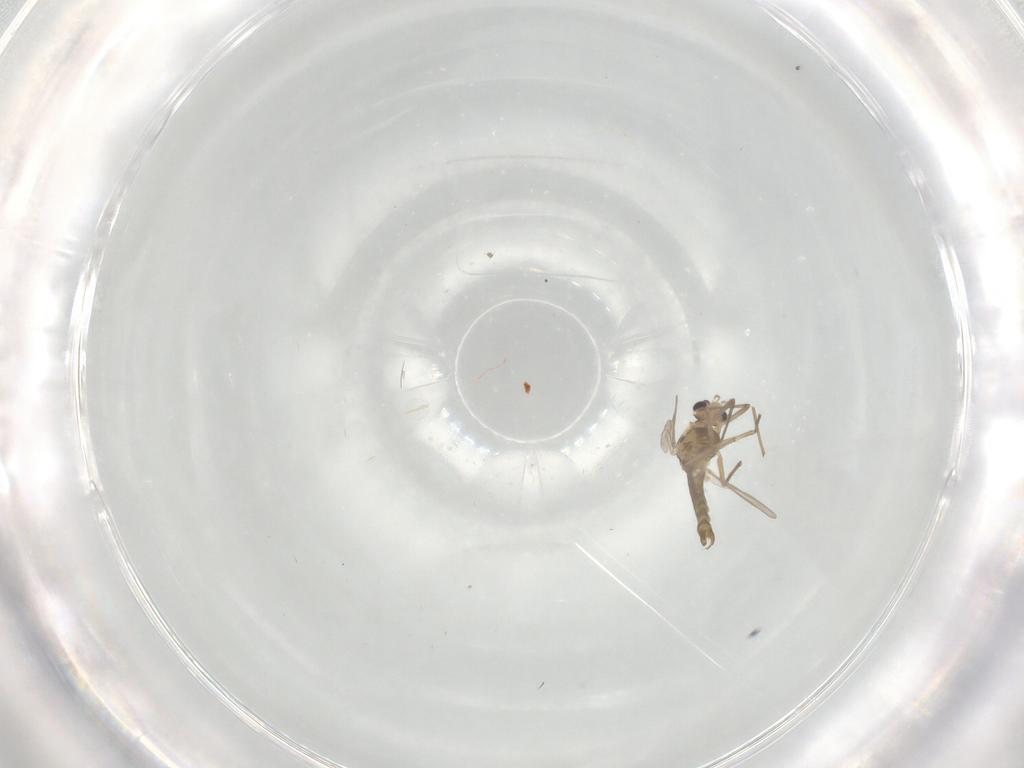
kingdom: Animalia
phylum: Arthropoda
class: Insecta
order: Diptera
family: Chironomidae
